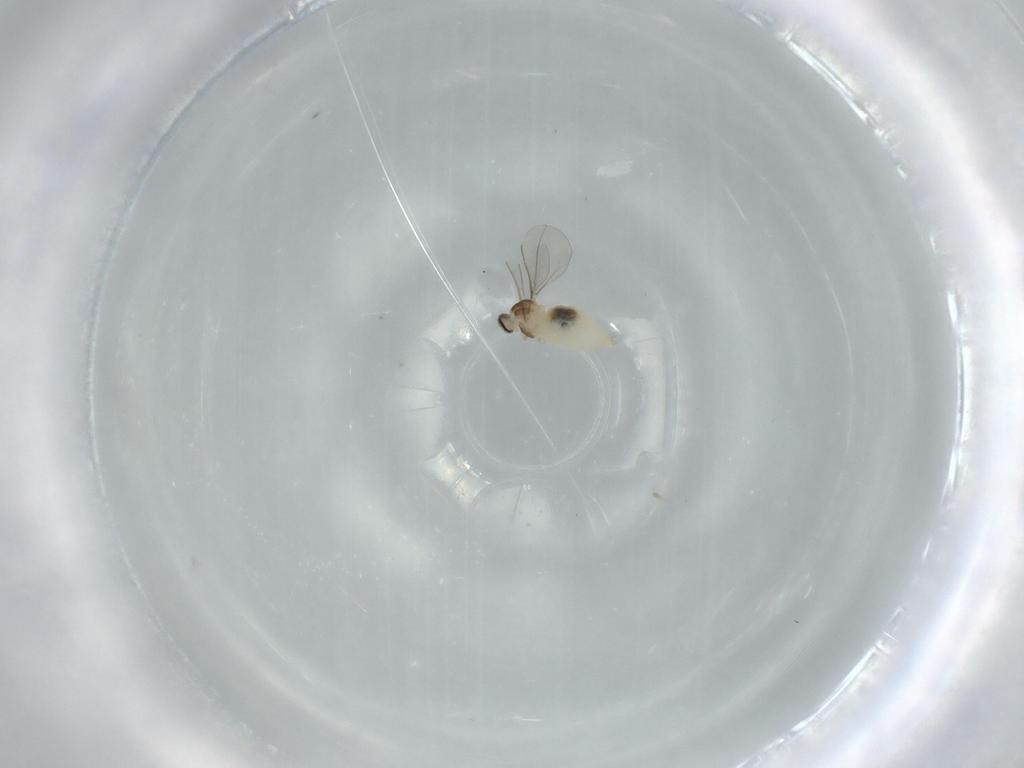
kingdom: Animalia
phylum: Arthropoda
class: Insecta
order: Diptera
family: Cecidomyiidae
